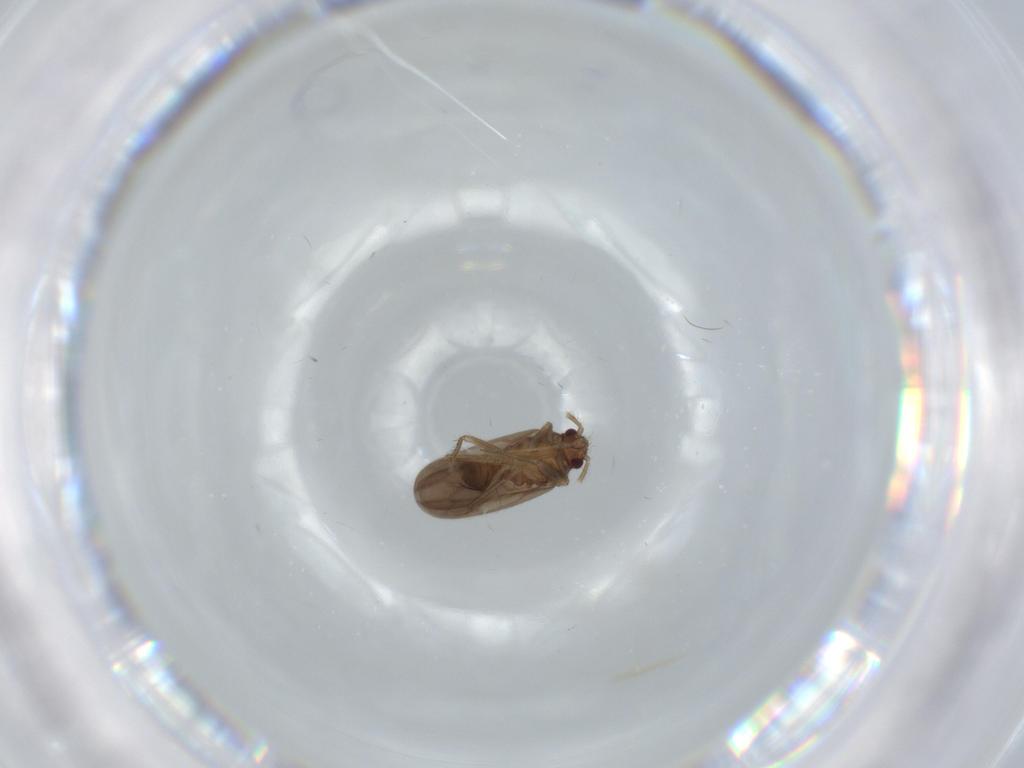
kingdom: Animalia
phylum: Arthropoda
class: Insecta
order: Hemiptera
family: Ceratocombidae
